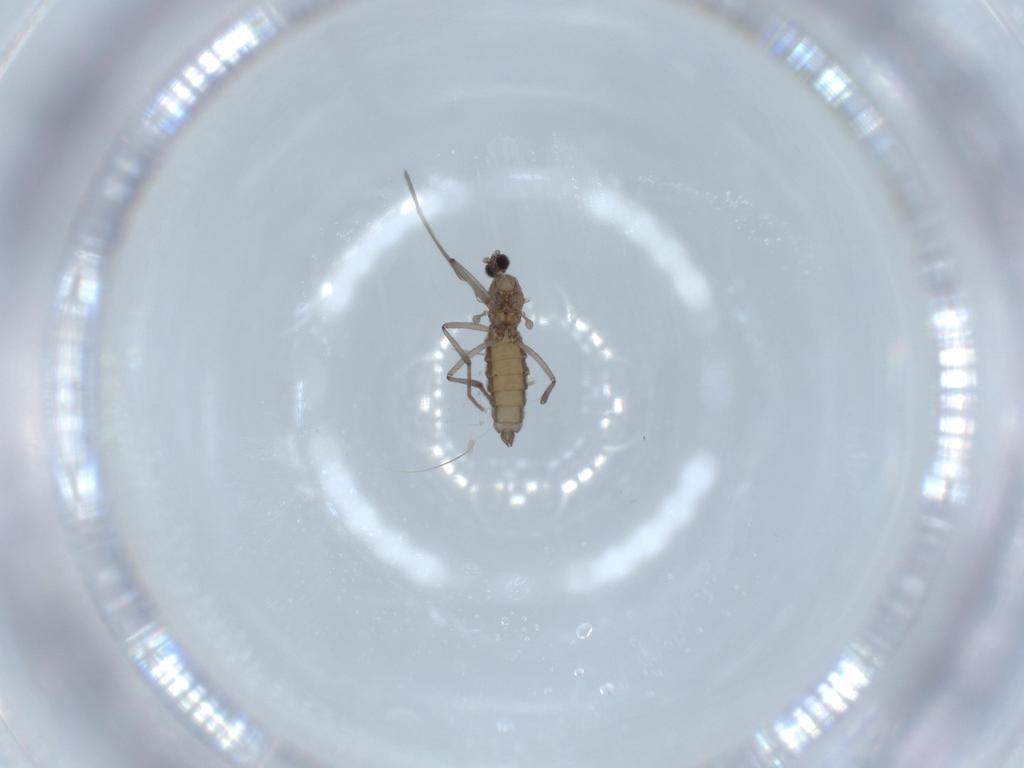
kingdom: Animalia
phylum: Arthropoda
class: Insecta
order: Diptera
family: Cecidomyiidae
